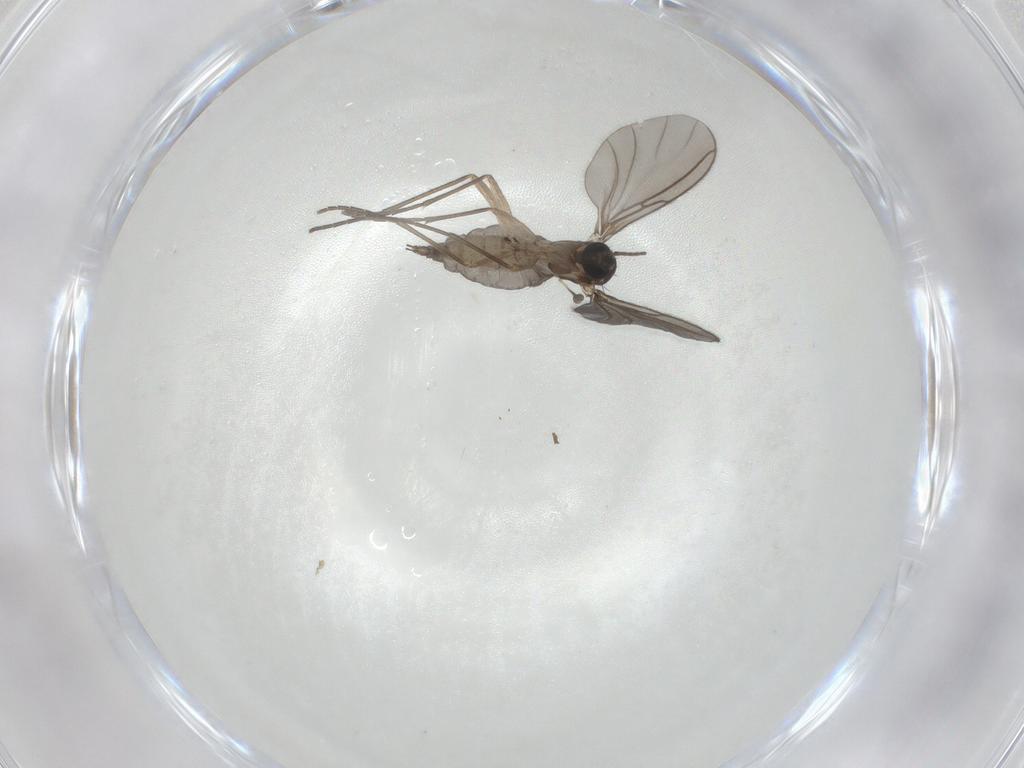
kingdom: Animalia
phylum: Arthropoda
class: Insecta
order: Diptera
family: Sciaridae
